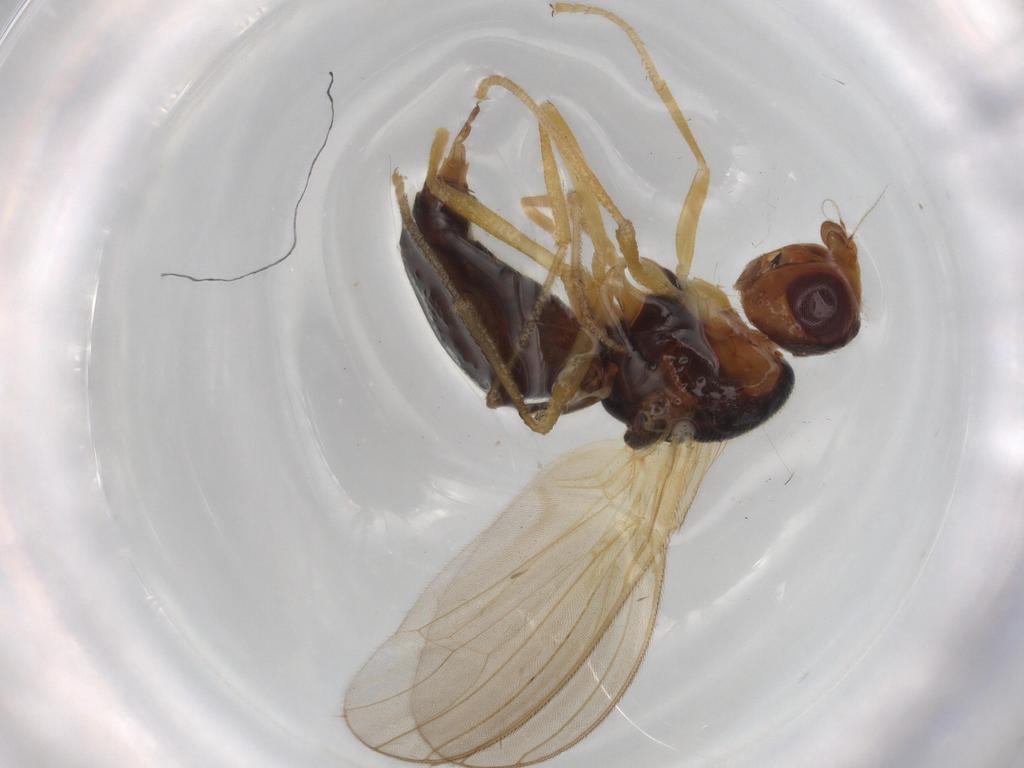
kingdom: Animalia
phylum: Arthropoda
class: Insecta
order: Diptera
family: Psilidae
